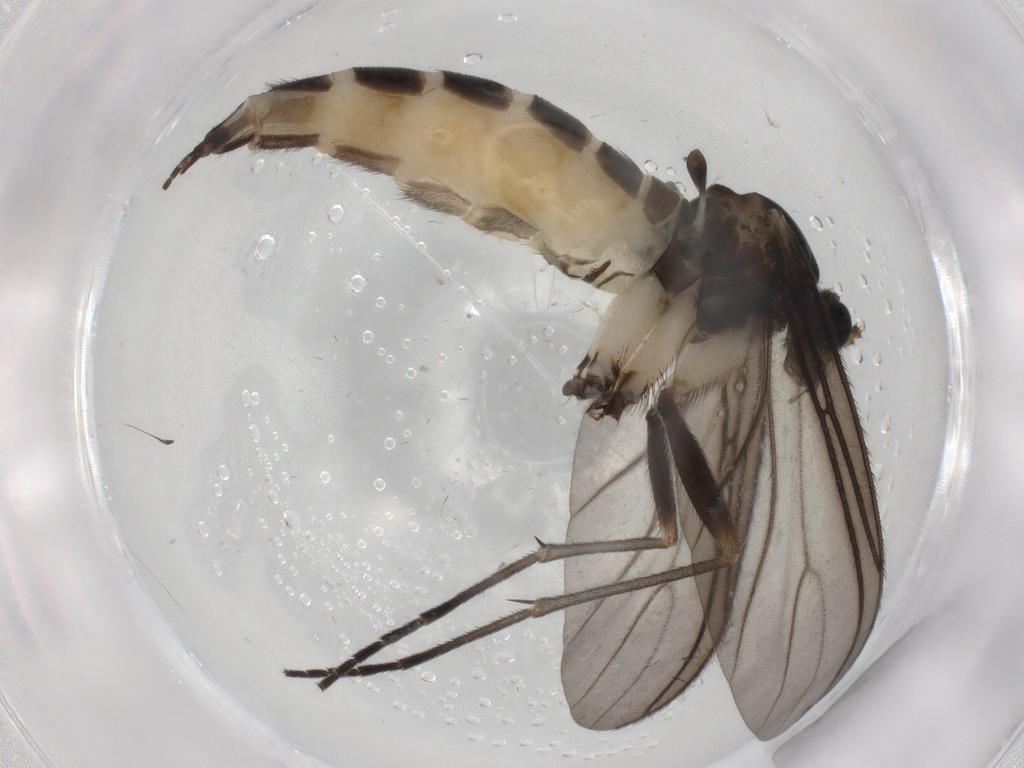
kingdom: Animalia
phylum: Arthropoda
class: Insecta
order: Diptera
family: Sciaridae
